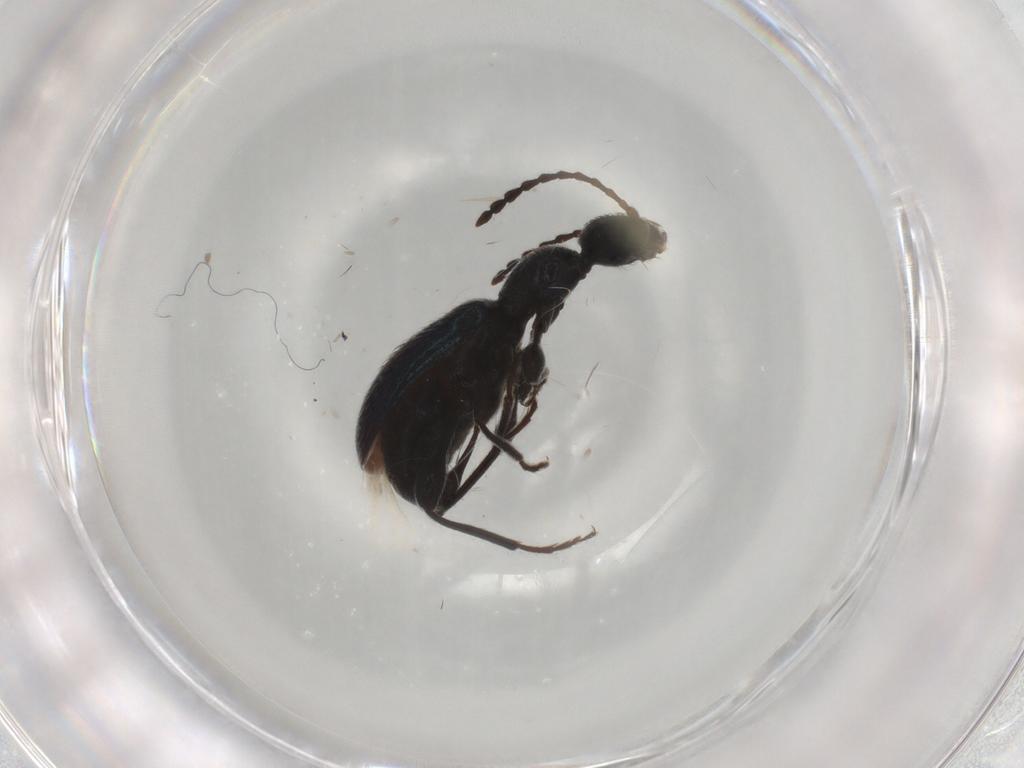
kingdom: Animalia
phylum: Arthropoda
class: Insecta
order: Coleoptera
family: Anthicidae
